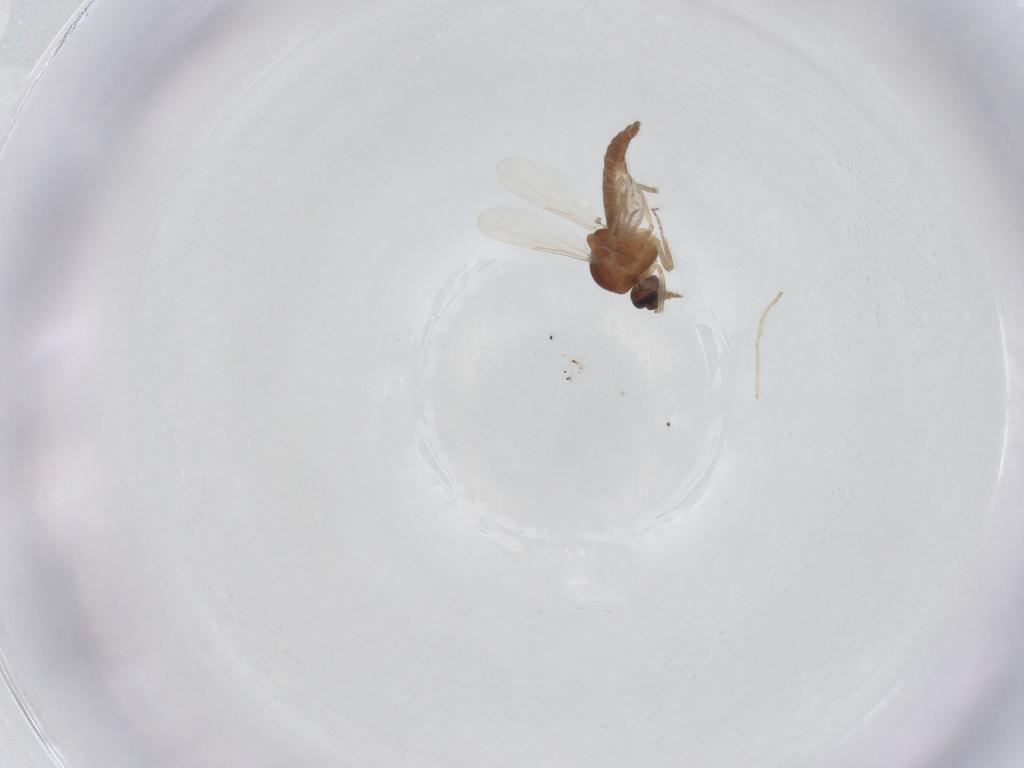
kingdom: Animalia
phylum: Arthropoda
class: Insecta
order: Diptera
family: Ceratopogonidae
